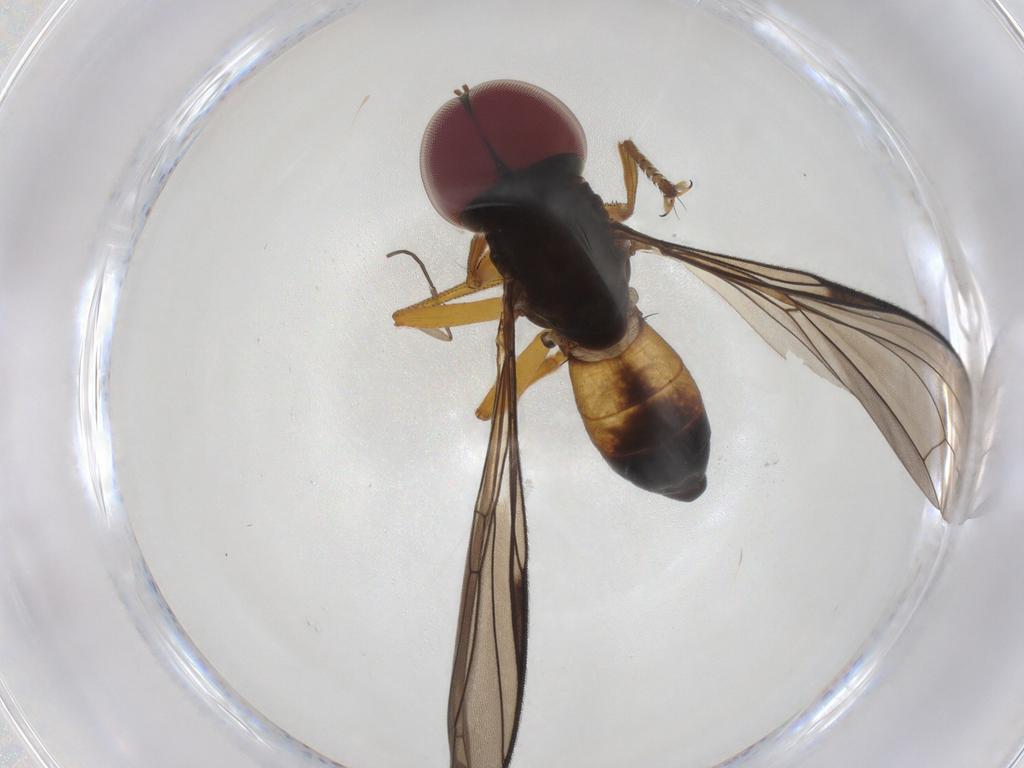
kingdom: Animalia
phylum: Arthropoda
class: Insecta
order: Diptera
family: Pipunculidae
